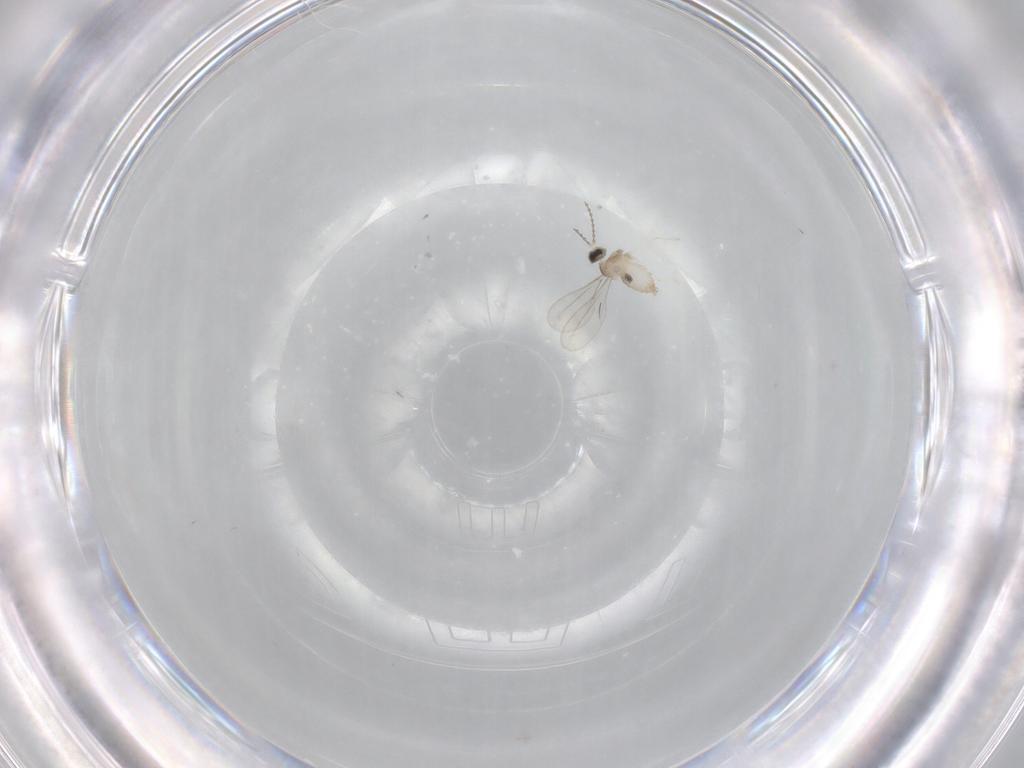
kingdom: Animalia
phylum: Arthropoda
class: Insecta
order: Diptera
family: Cecidomyiidae
